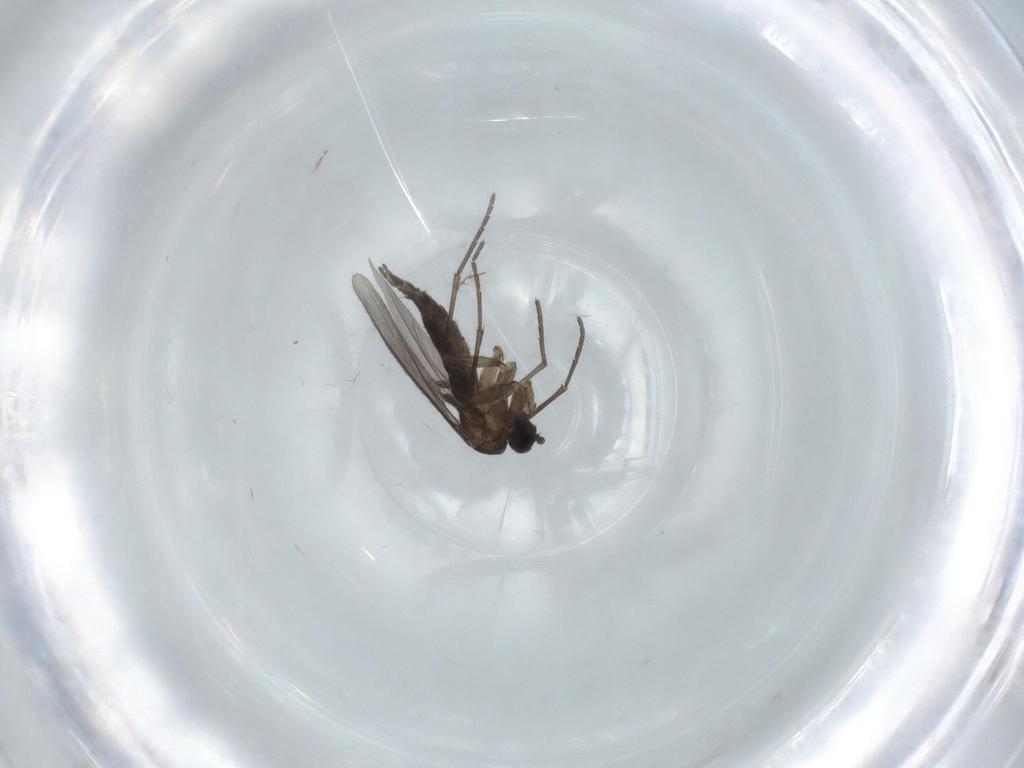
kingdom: Animalia
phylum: Arthropoda
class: Insecta
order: Diptera
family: Sciaridae
